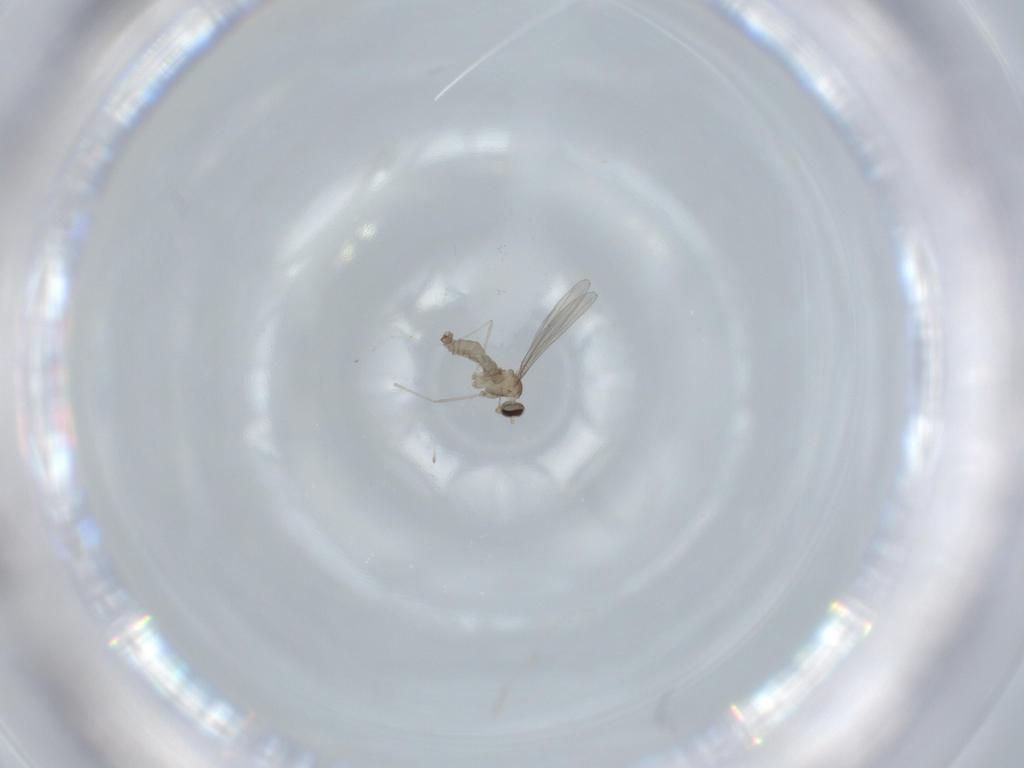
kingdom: Animalia
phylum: Arthropoda
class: Insecta
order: Diptera
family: Cecidomyiidae
